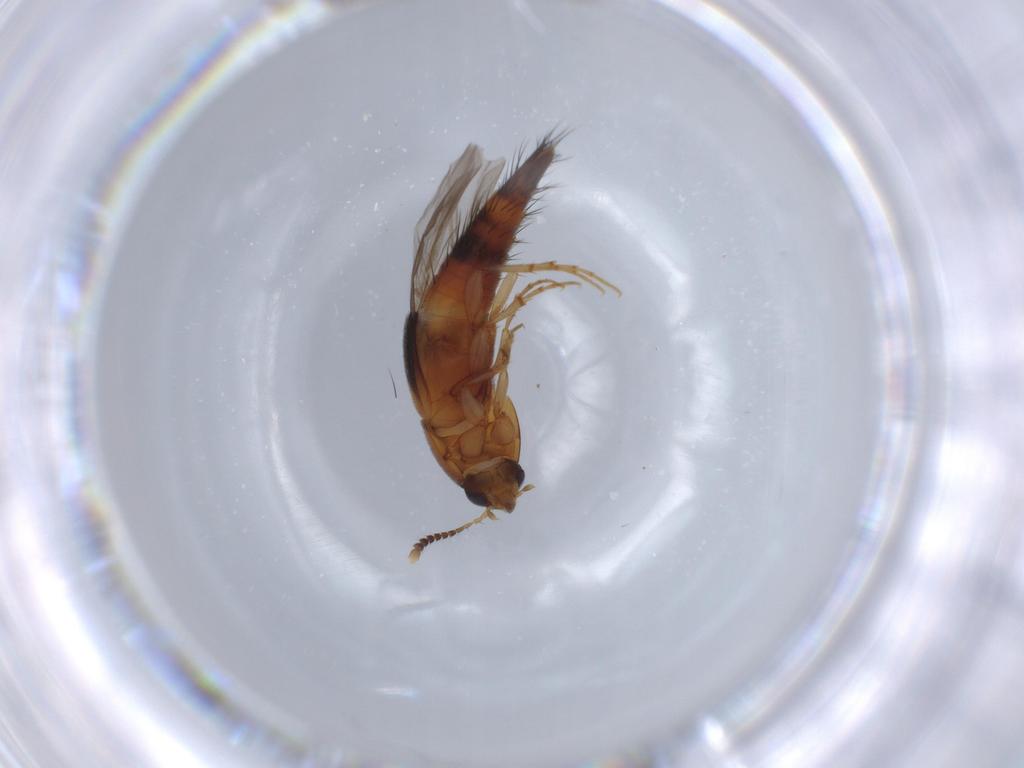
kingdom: Animalia
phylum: Arthropoda
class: Insecta
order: Coleoptera
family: Staphylinidae
